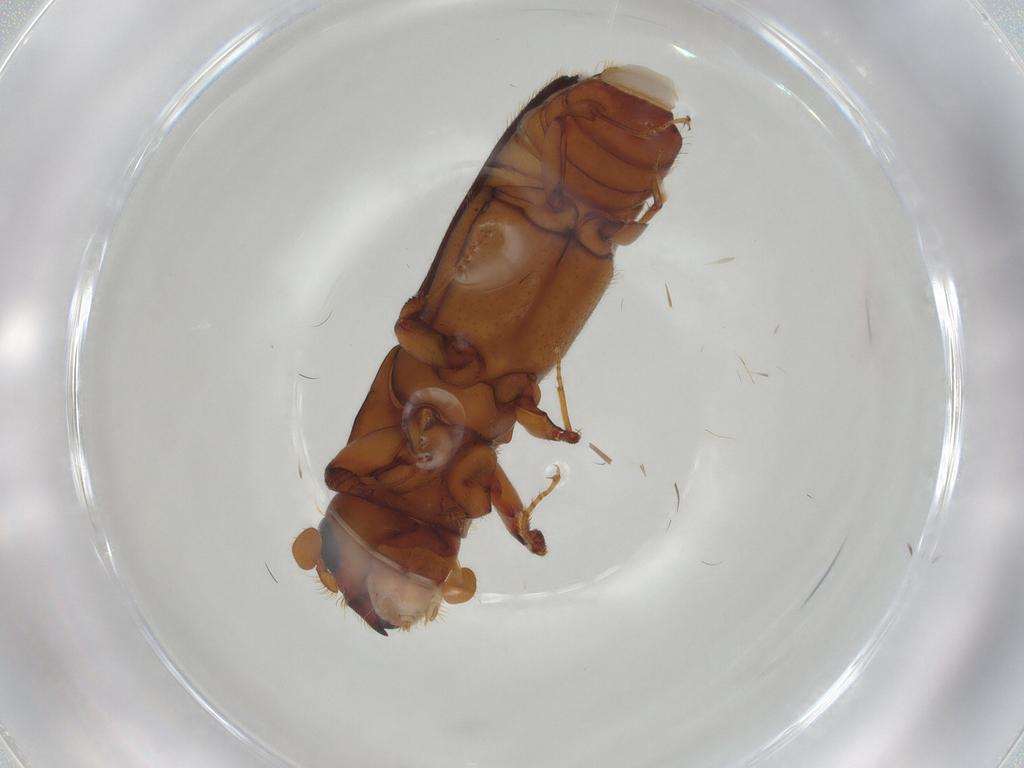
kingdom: Animalia
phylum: Arthropoda
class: Insecta
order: Coleoptera
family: Curculionidae
